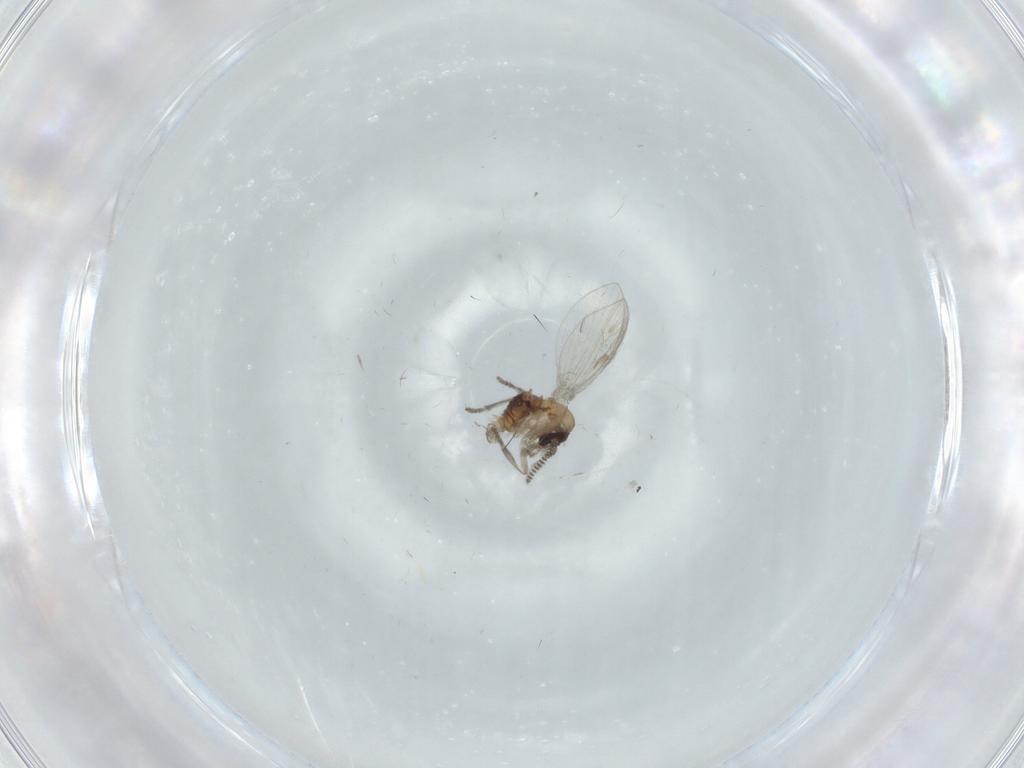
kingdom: Animalia
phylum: Arthropoda
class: Insecta
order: Diptera
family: Psychodidae
